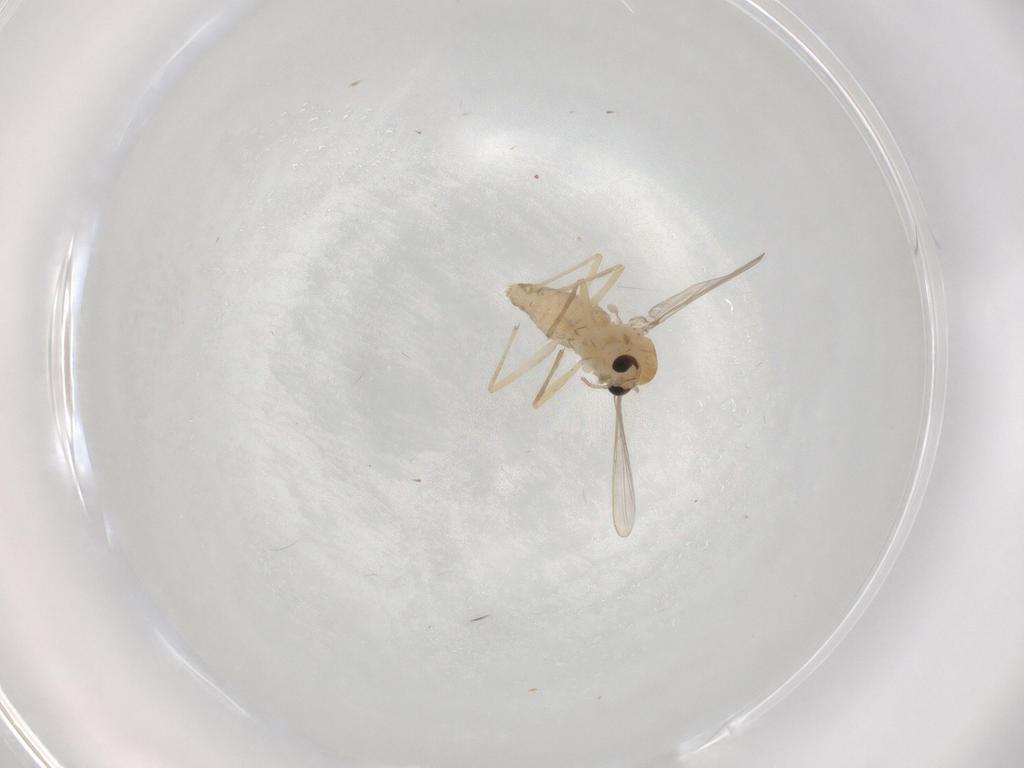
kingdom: Animalia
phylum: Arthropoda
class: Insecta
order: Diptera
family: Chironomidae
